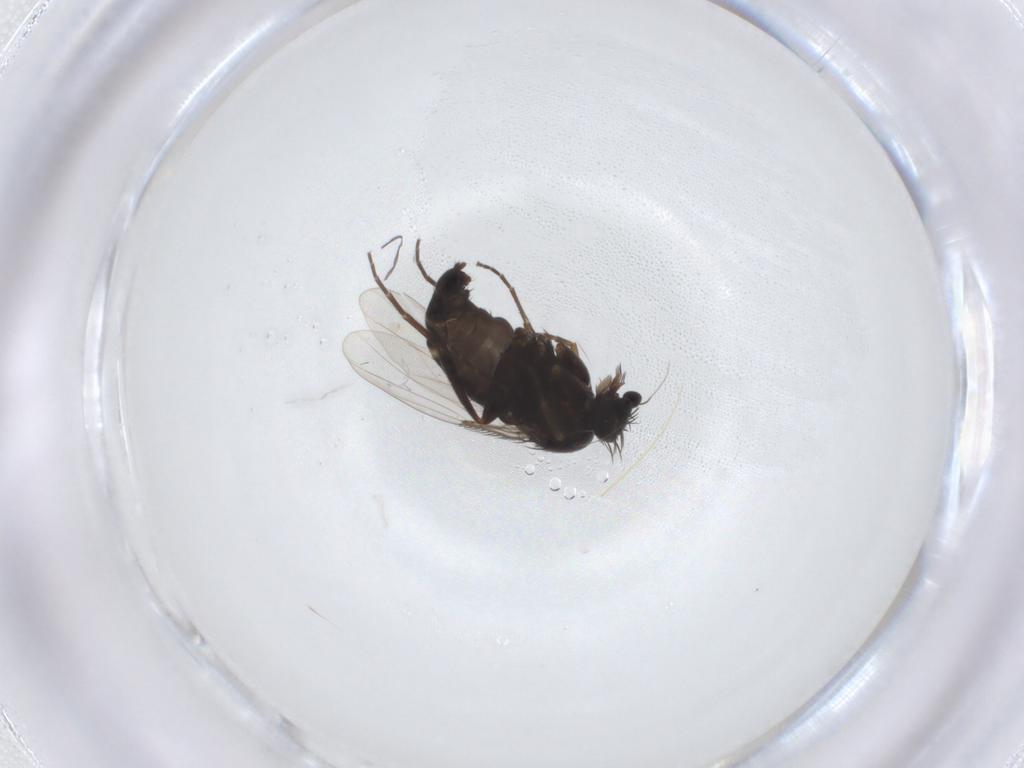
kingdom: Animalia
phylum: Arthropoda
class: Insecta
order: Diptera
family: Phoridae
